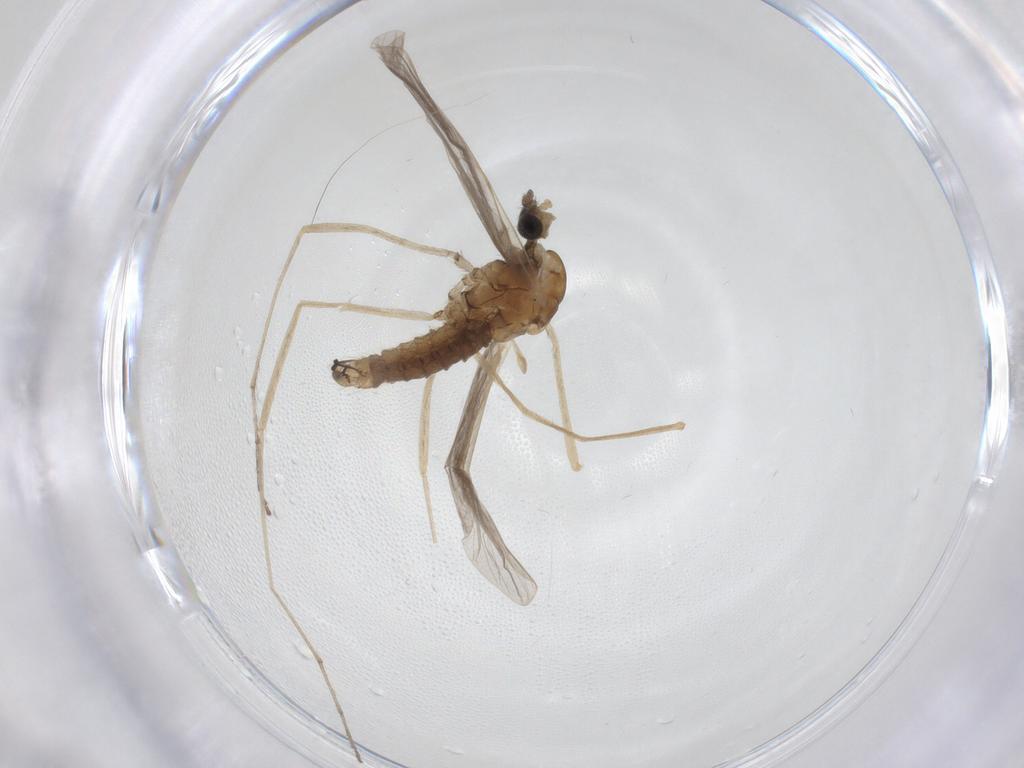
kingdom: Animalia
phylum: Arthropoda
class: Insecta
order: Diptera
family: Limoniidae
